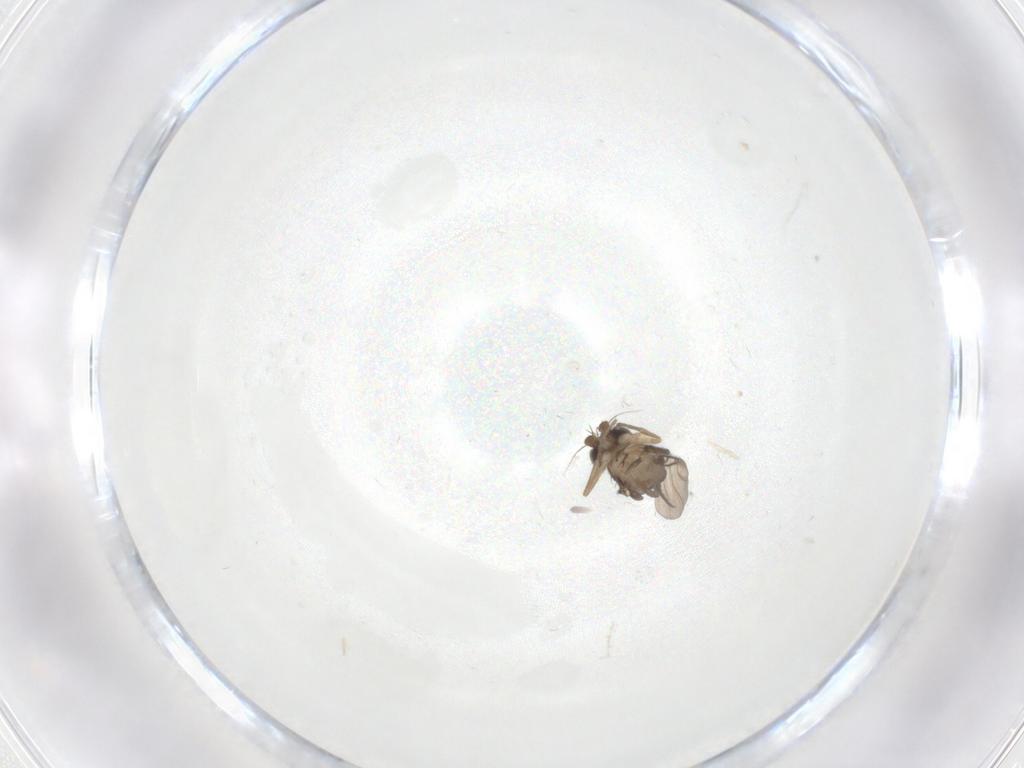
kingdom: Animalia
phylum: Arthropoda
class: Insecta
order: Diptera
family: Phoridae
